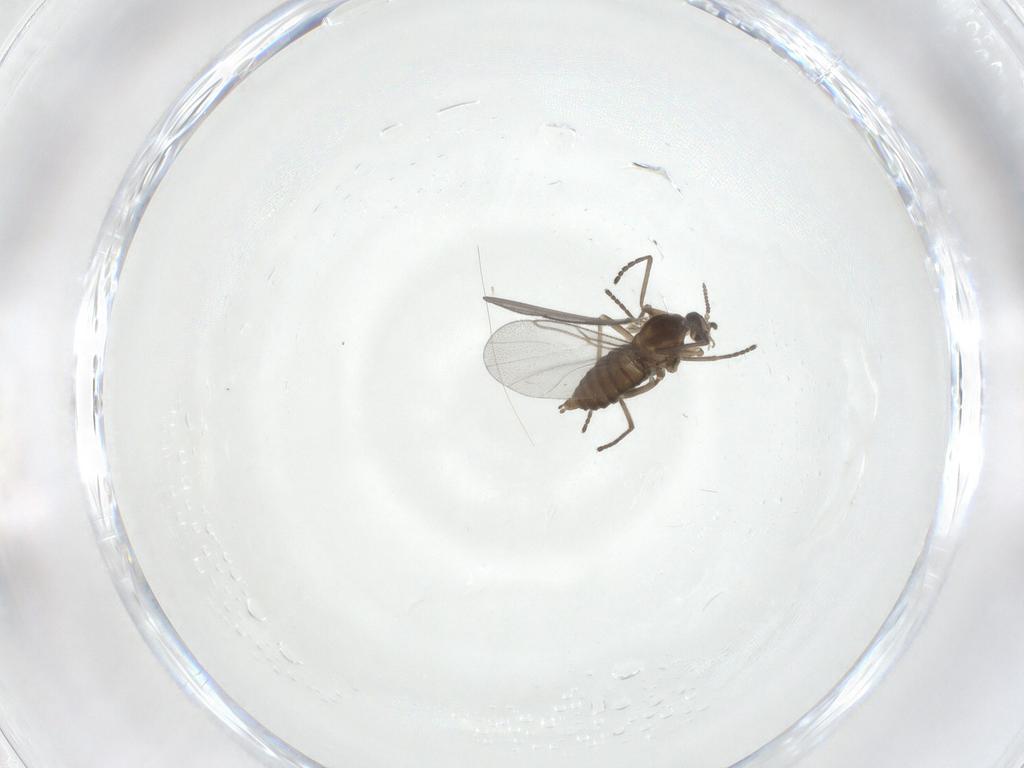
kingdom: Animalia
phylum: Arthropoda
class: Insecta
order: Diptera
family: Cecidomyiidae
